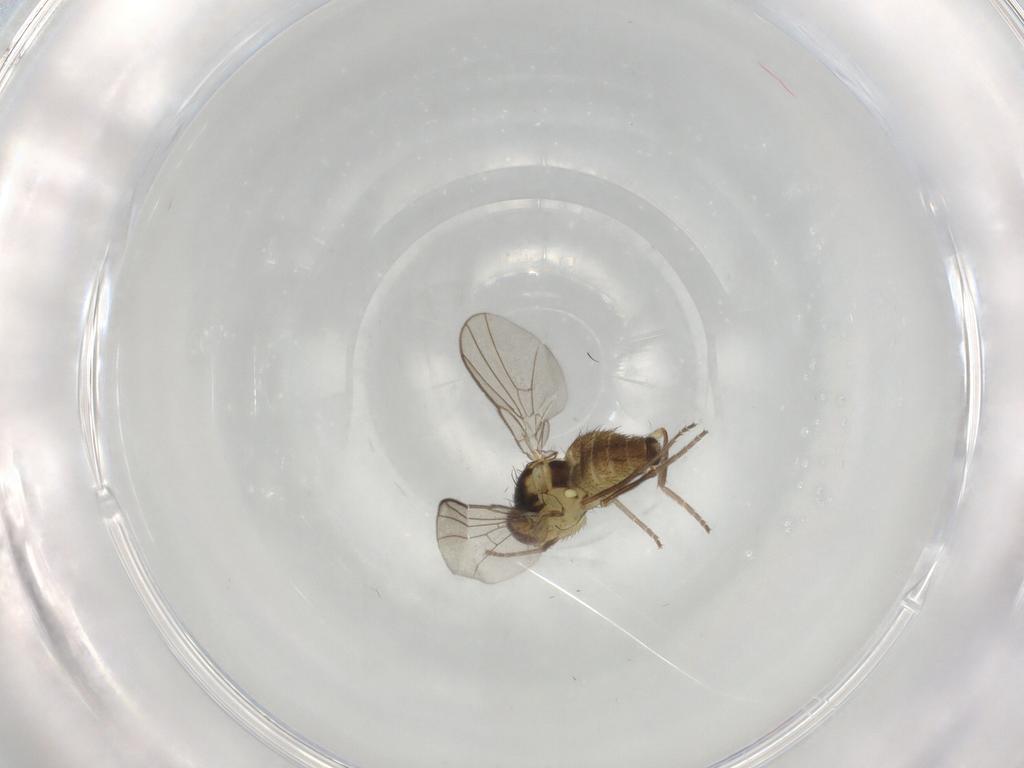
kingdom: Animalia
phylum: Arthropoda
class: Insecta
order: Diptera
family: Agromyzidae
